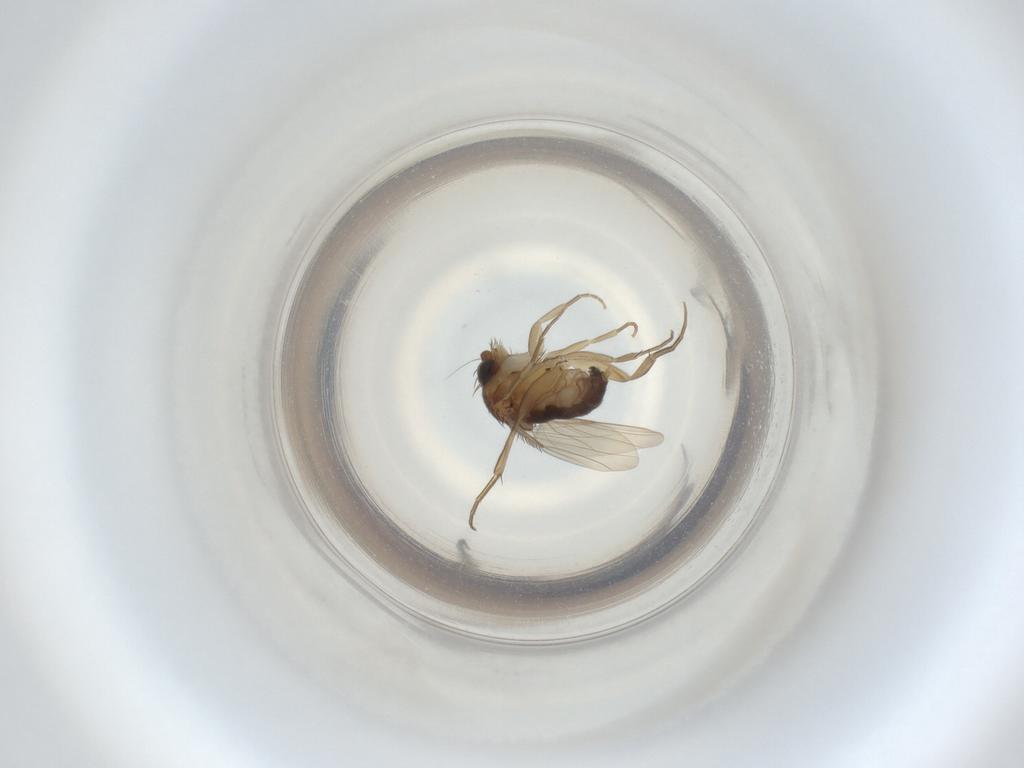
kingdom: Animalia
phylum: Arthropoda
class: Insecta
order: Diptera
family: Phoridae
